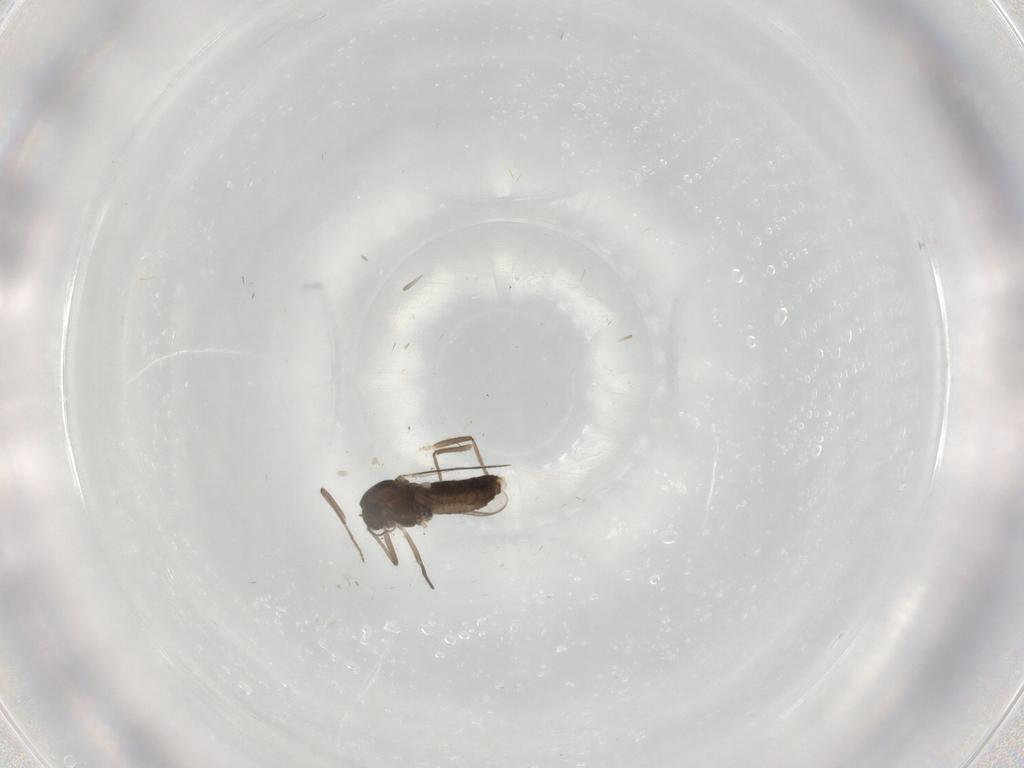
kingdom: Animalia
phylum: Arthropoda
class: Insecta
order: Diptera
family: Chironomidae
